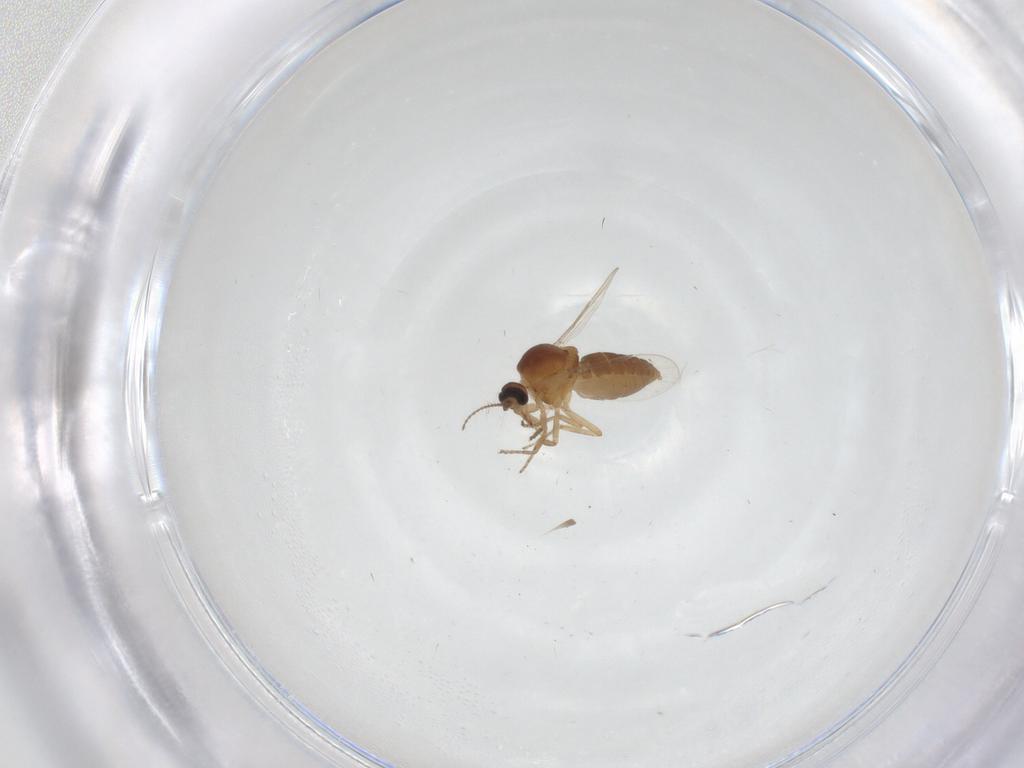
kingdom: Animalia
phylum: Arthropoda
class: Insecta
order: Diptera
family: Ceratopogonidae
